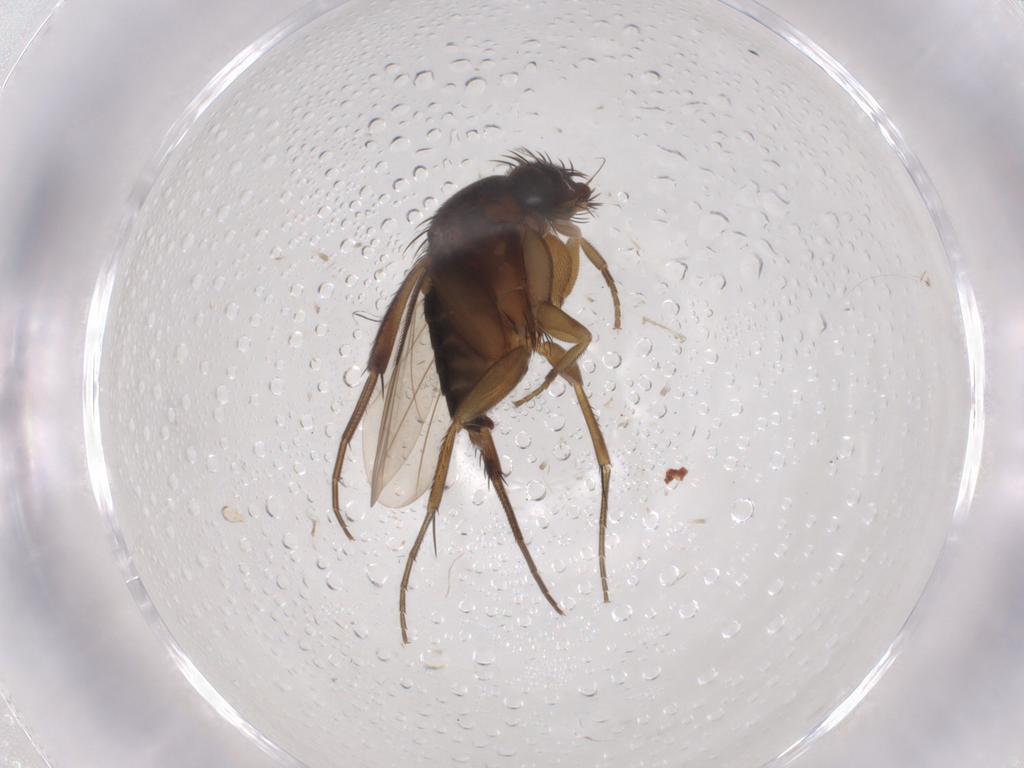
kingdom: Animalia
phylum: Arthropoda
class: Insecta
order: Diptera
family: Phoridae
